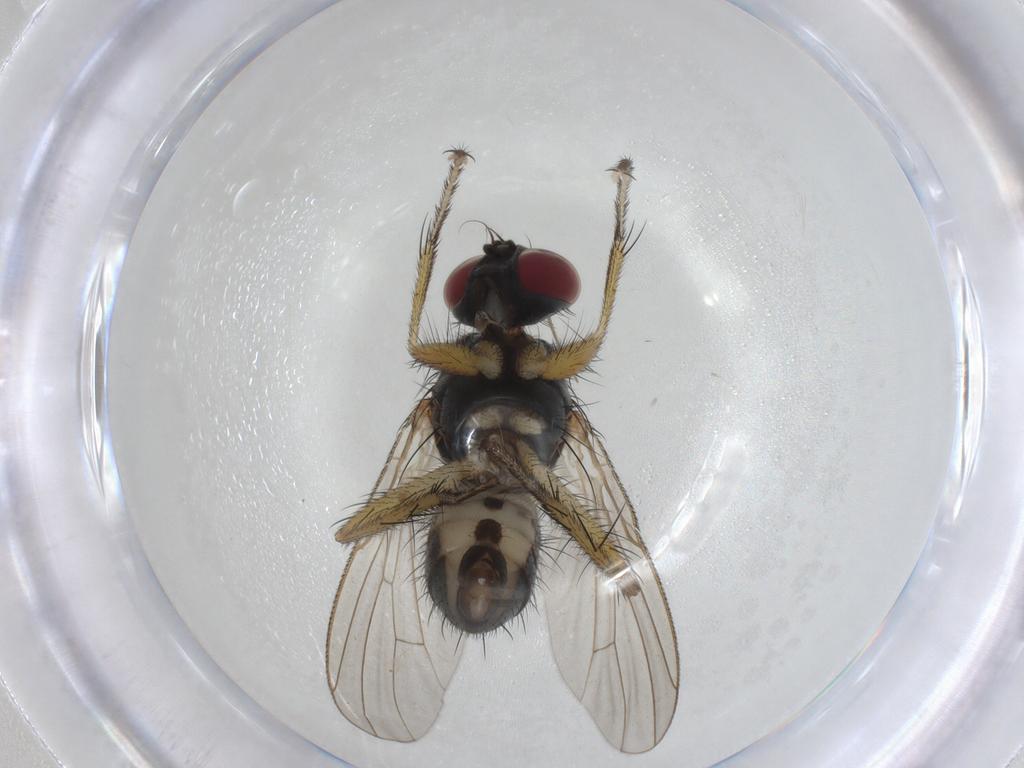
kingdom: Animalia
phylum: Arthropoda
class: Insecta
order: Diptera
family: Muscidae
